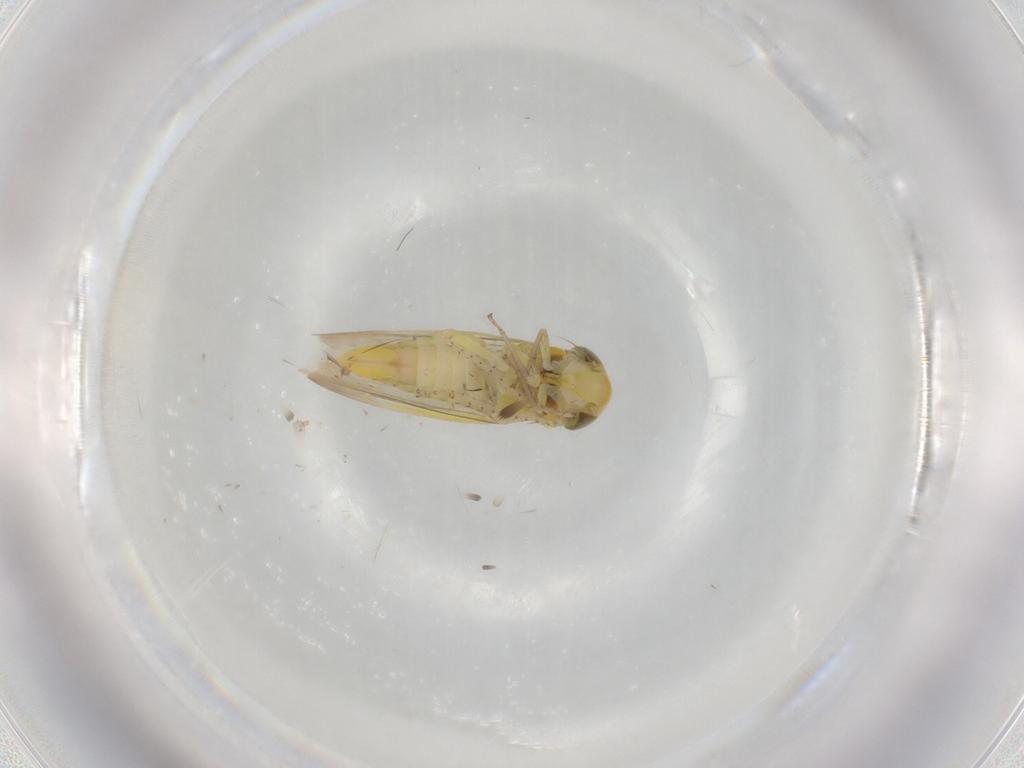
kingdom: Animalia
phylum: Arthropoda
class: Insecta
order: Hemiptera
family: Cicadellidae
